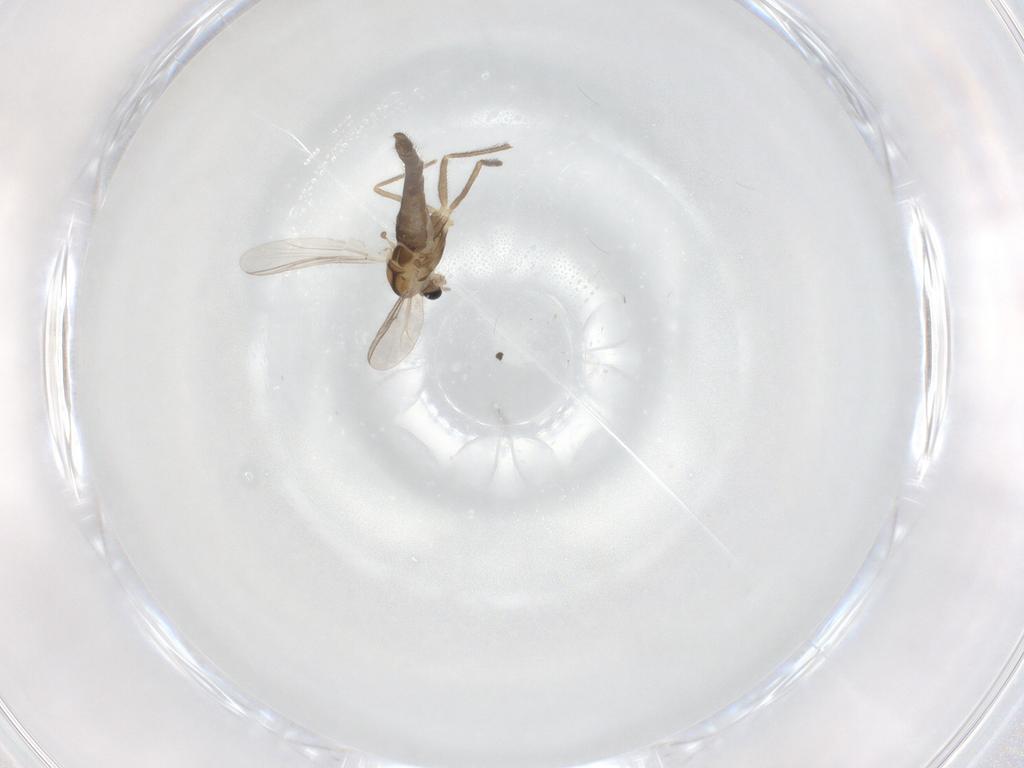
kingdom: Animalia
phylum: Arthropoda
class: Insecta
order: Diptera
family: Chironomidae
